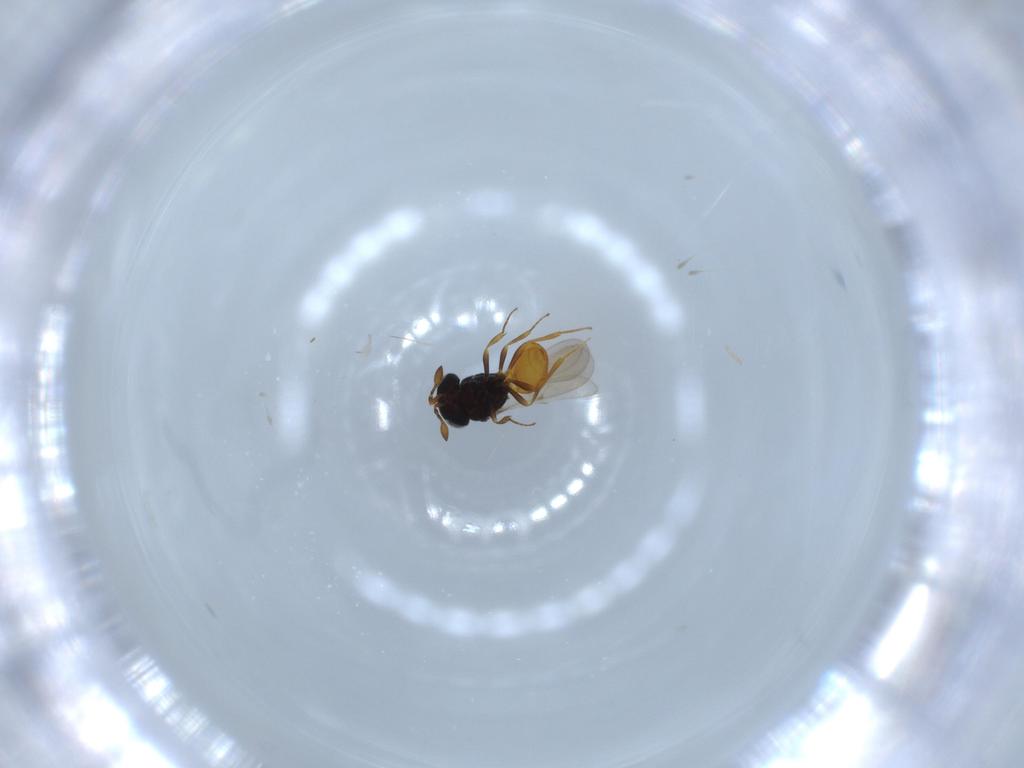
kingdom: Animalia
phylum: Arthropoda
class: Insecta
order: Hymenoptera
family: Scelionidae
